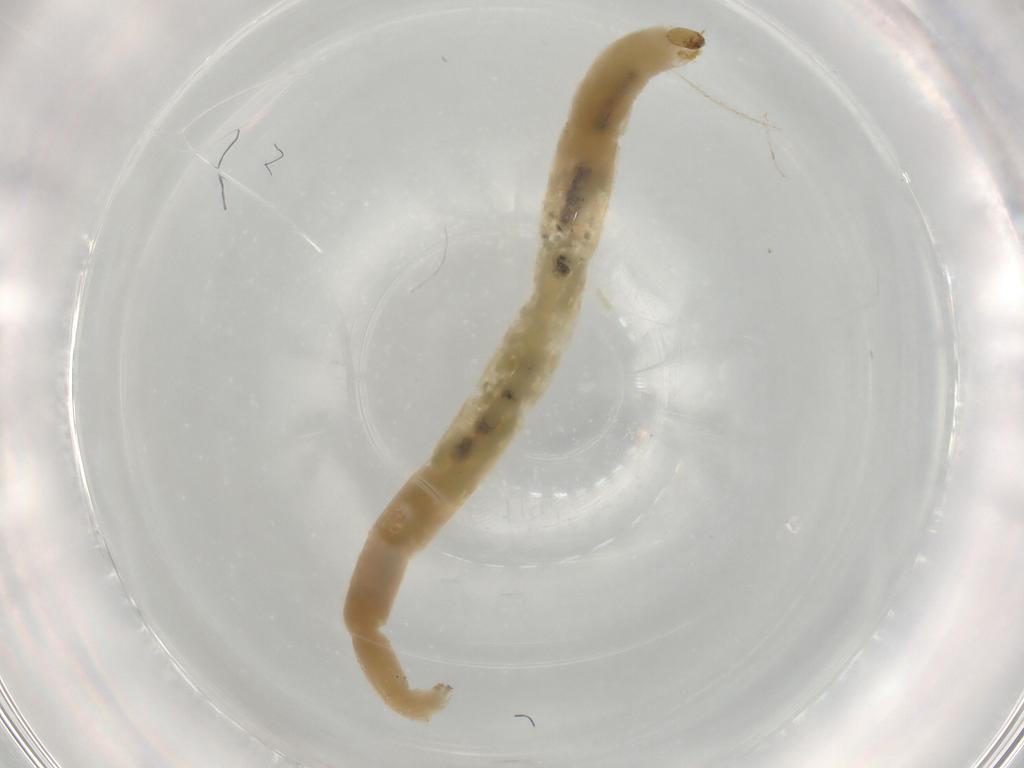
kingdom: Animalia
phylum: Arthropoda
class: Insecta
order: Diptera
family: Chironomidae
